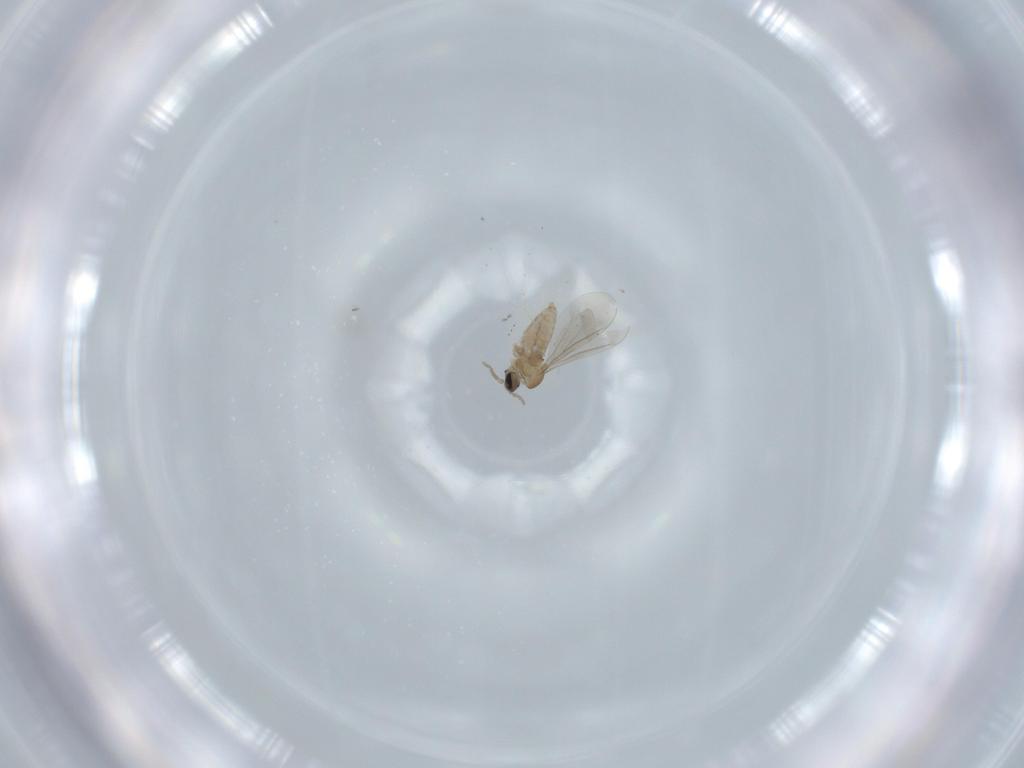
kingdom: Animalia
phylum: Arthropoda
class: Insecta
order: Diptera
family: Cecidomyiidae
